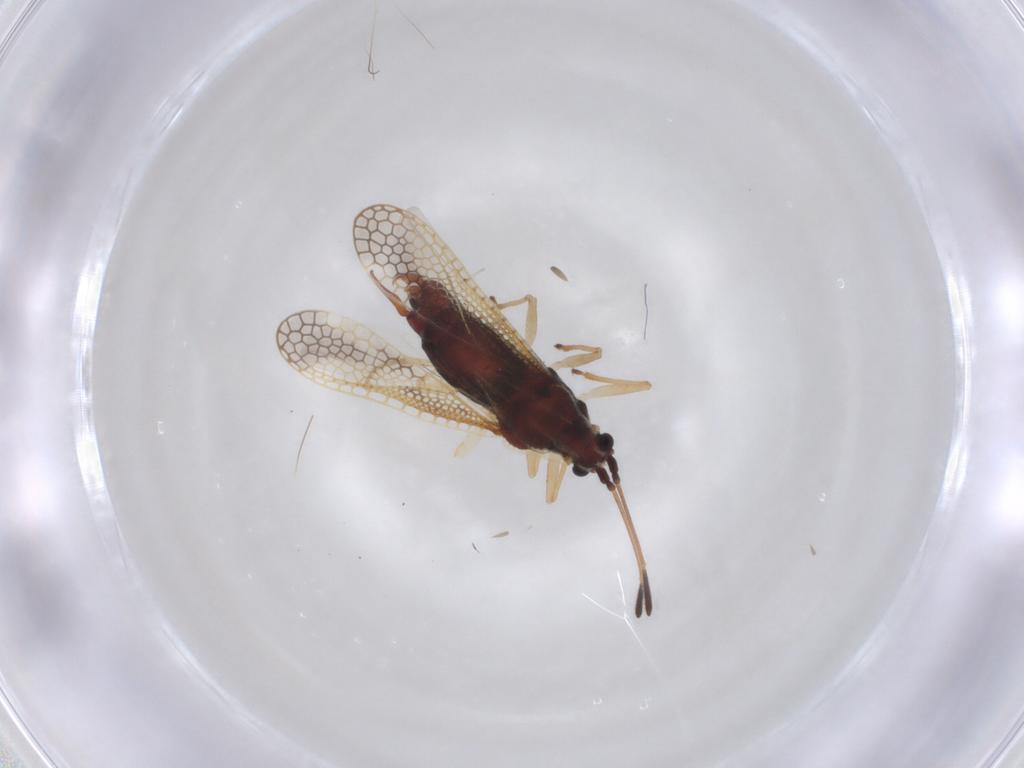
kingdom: Animalia
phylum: Arthropoda
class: Insecta
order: Hemiptera
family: Tingidae
